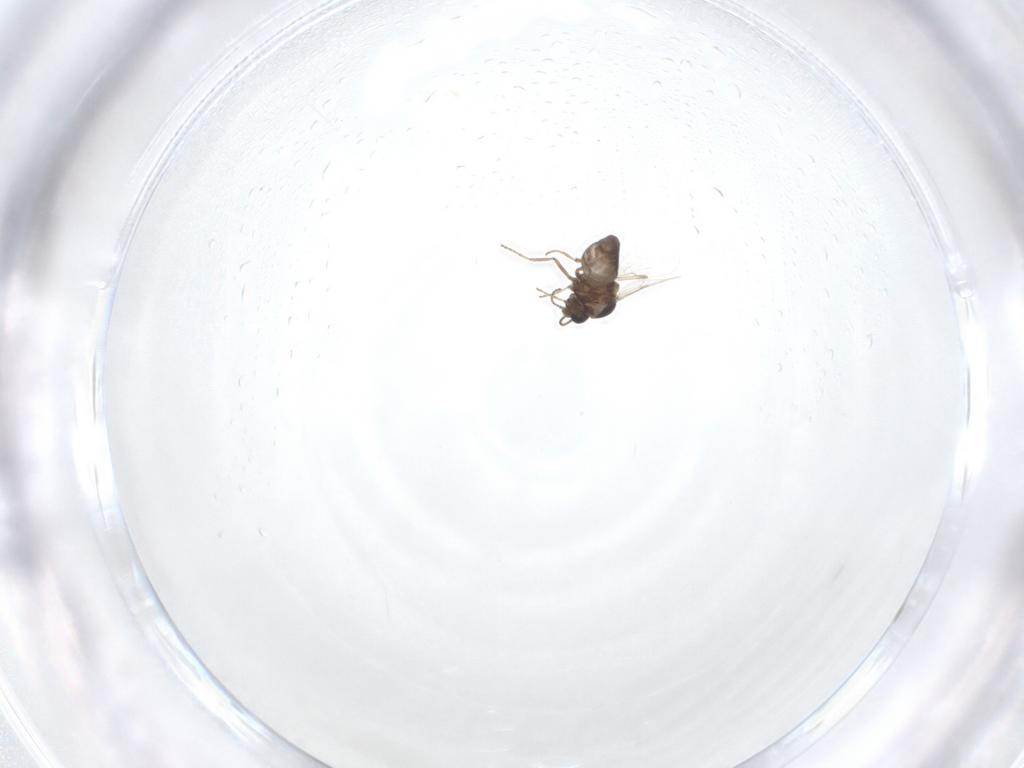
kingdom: Animalia
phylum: Arthropoda
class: Insecta
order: Diptera
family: Ceratopogonidae
